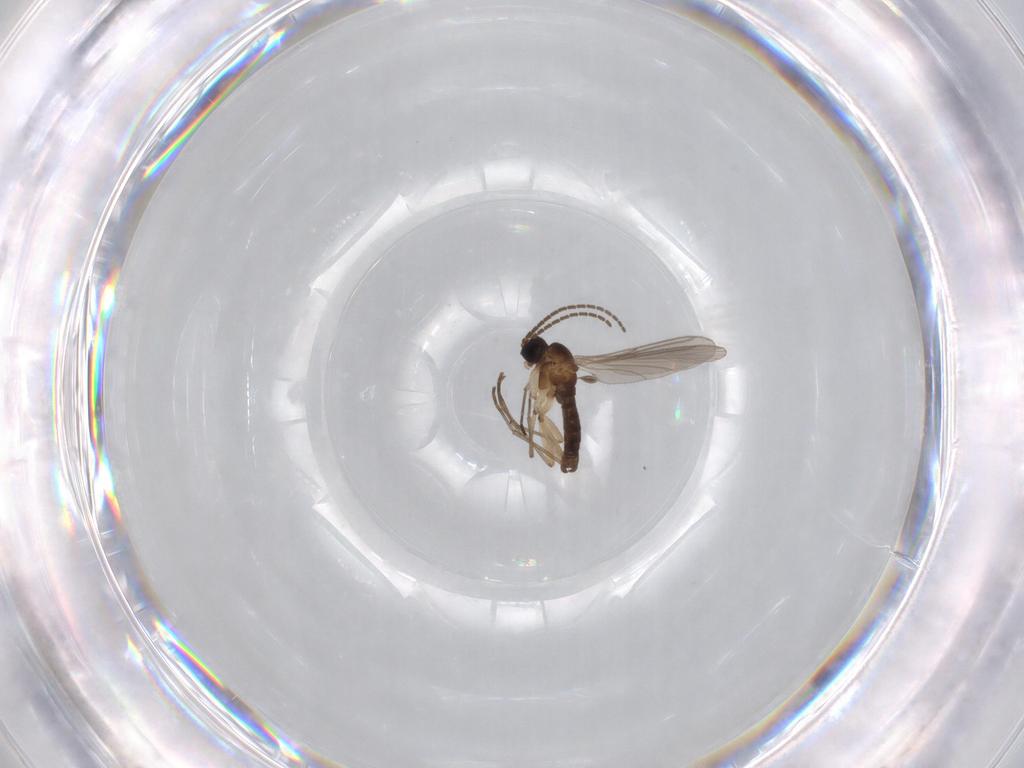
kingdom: Animalia
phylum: Arthropoda
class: Insecta
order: Diptera
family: Sciaridae
